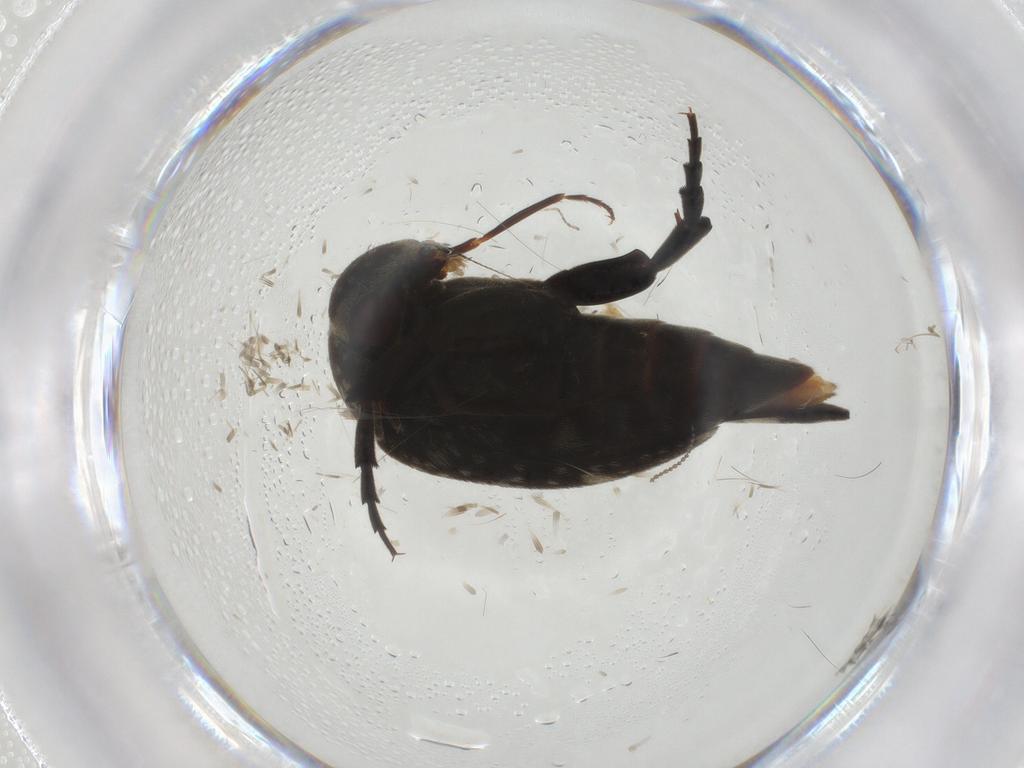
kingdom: Animalia
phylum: Arthropoda
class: Insecta
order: Coleoptera
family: Mordellidae
